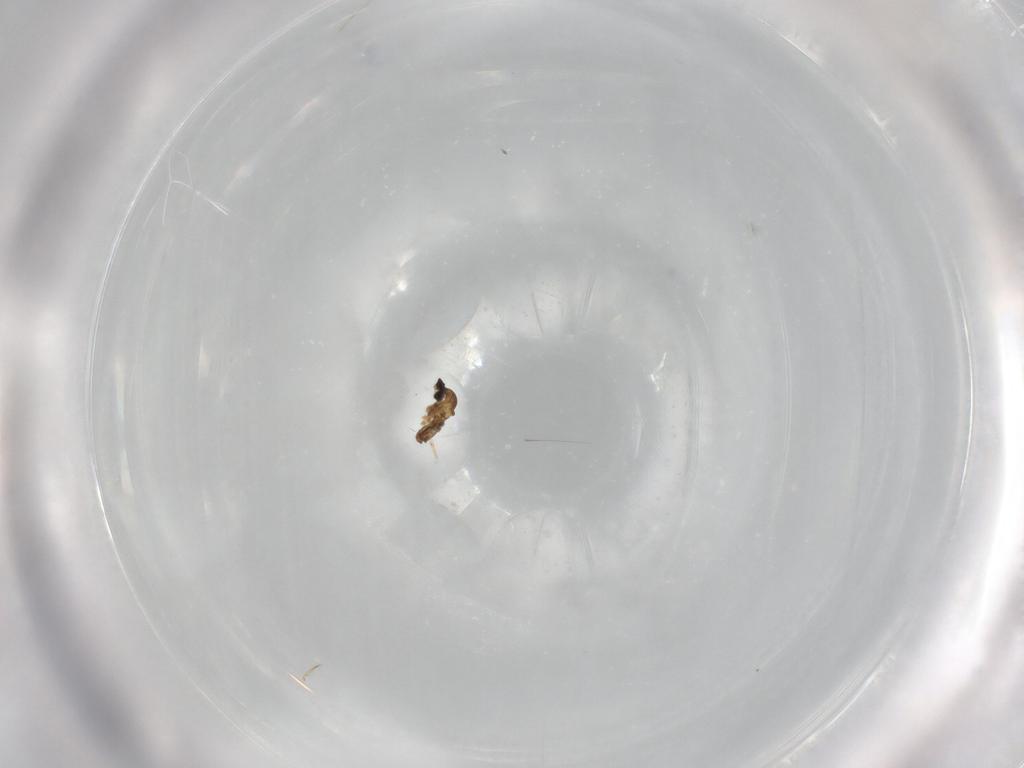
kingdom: Animalia
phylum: Arthropoda
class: Insecta
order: Diptera
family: Cecidomyiidae
